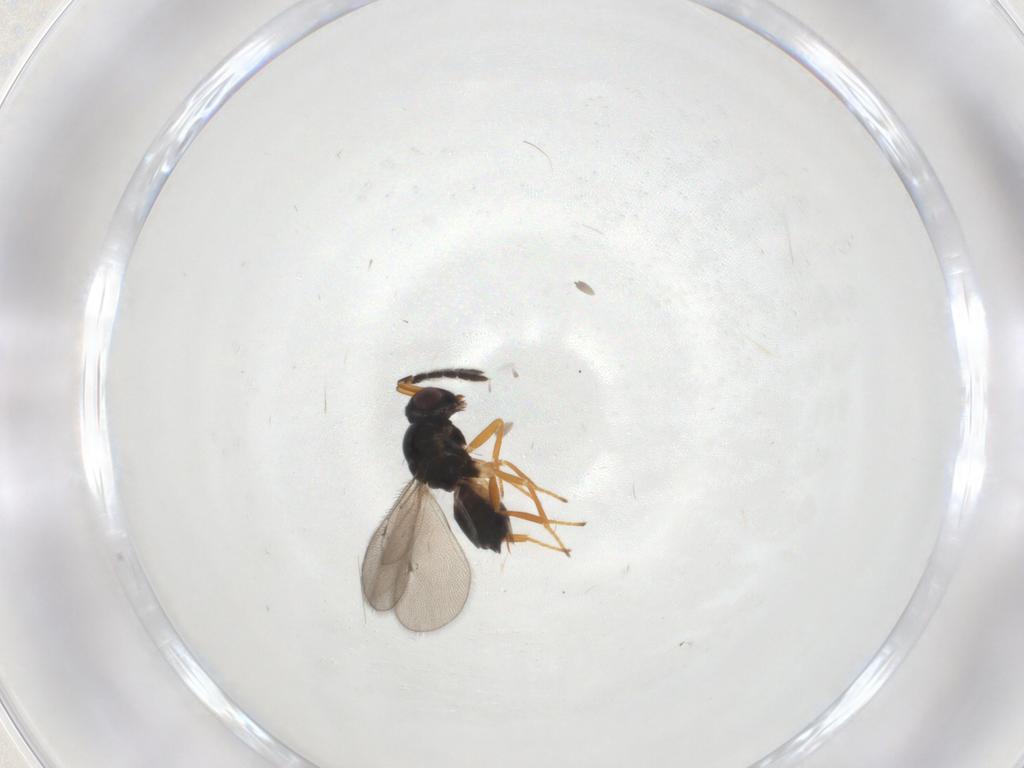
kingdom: Animalia
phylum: Arthropoda
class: Insecta
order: Hymenoptera
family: Eulophidae
